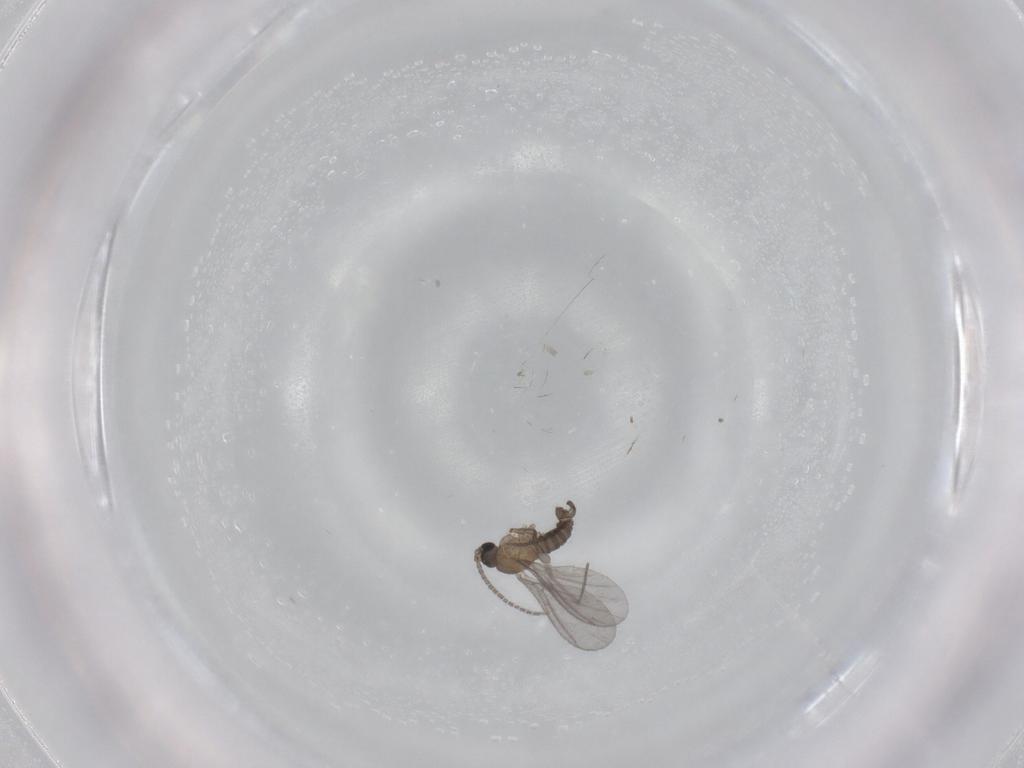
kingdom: Animalia
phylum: Arthropoda
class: Insecta
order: Diptera
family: Sciaridae
